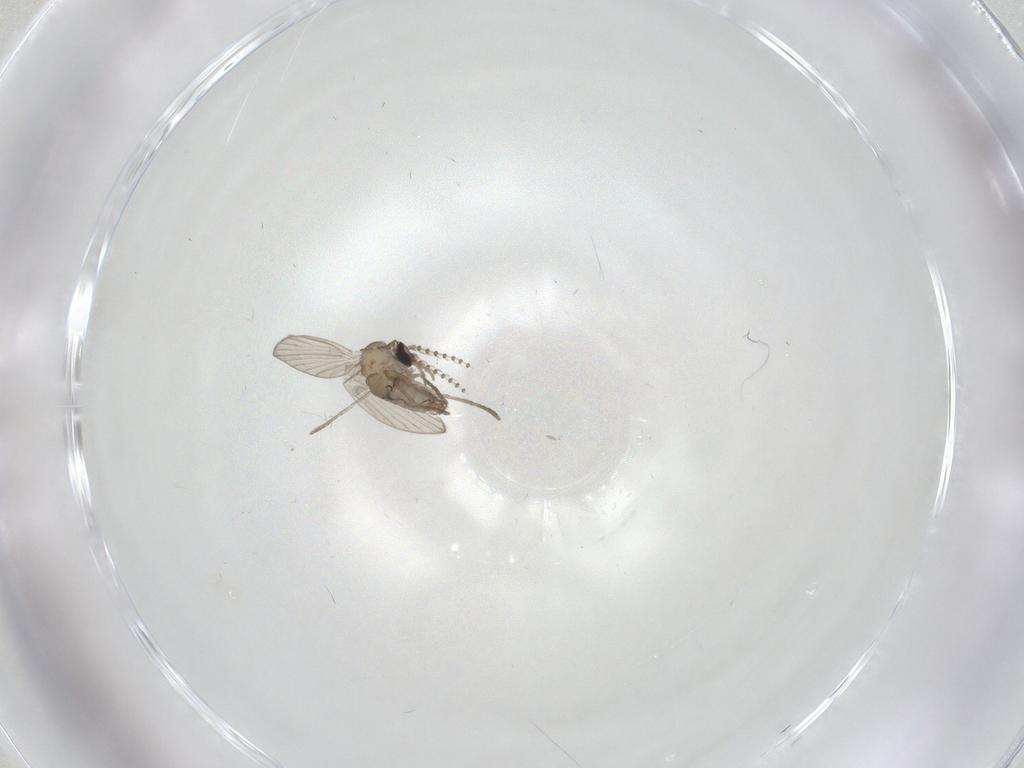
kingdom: Animalia
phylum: Arthropoda
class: Insecta
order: Diptera
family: Psychodidae
